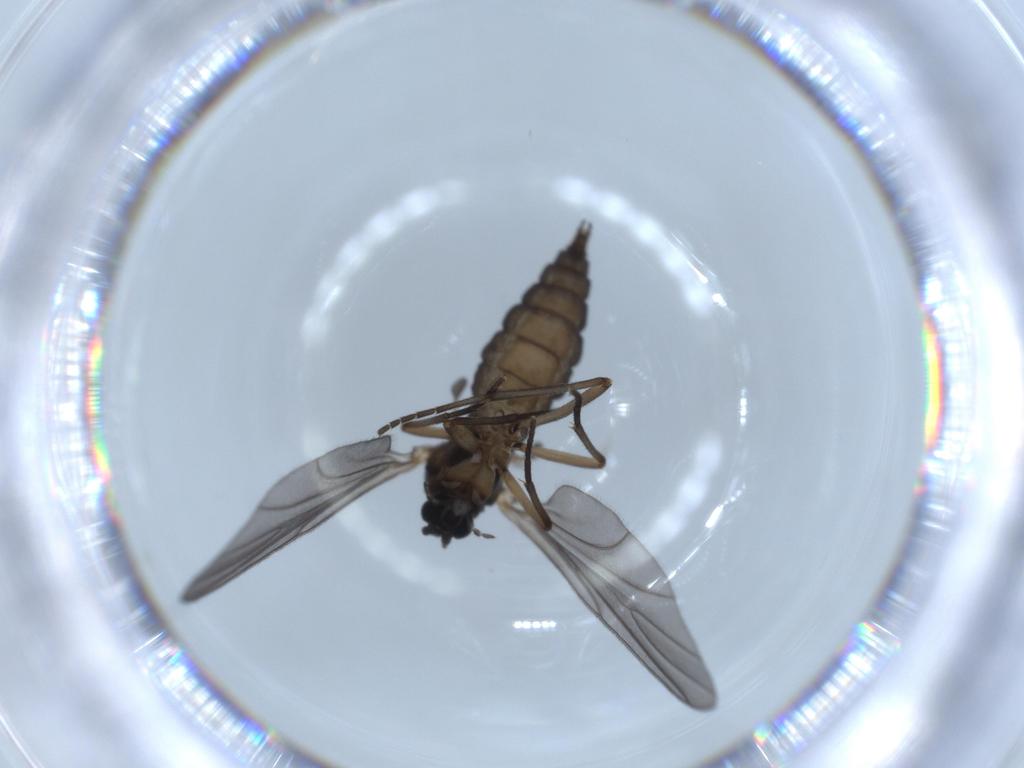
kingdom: Animalia
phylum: Arthropoda
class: Insecta
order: Diptera
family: Sciaridae
